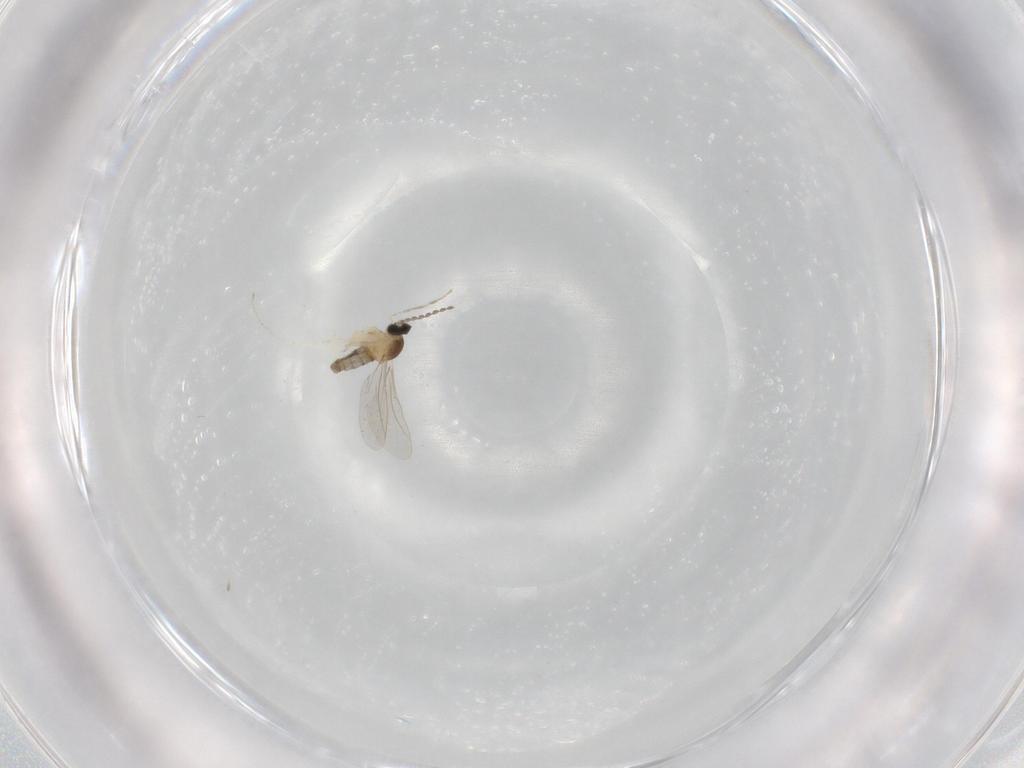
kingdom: Animalia
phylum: Arthropoda
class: Insecta
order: Diptera
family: Cecidomyiidae
